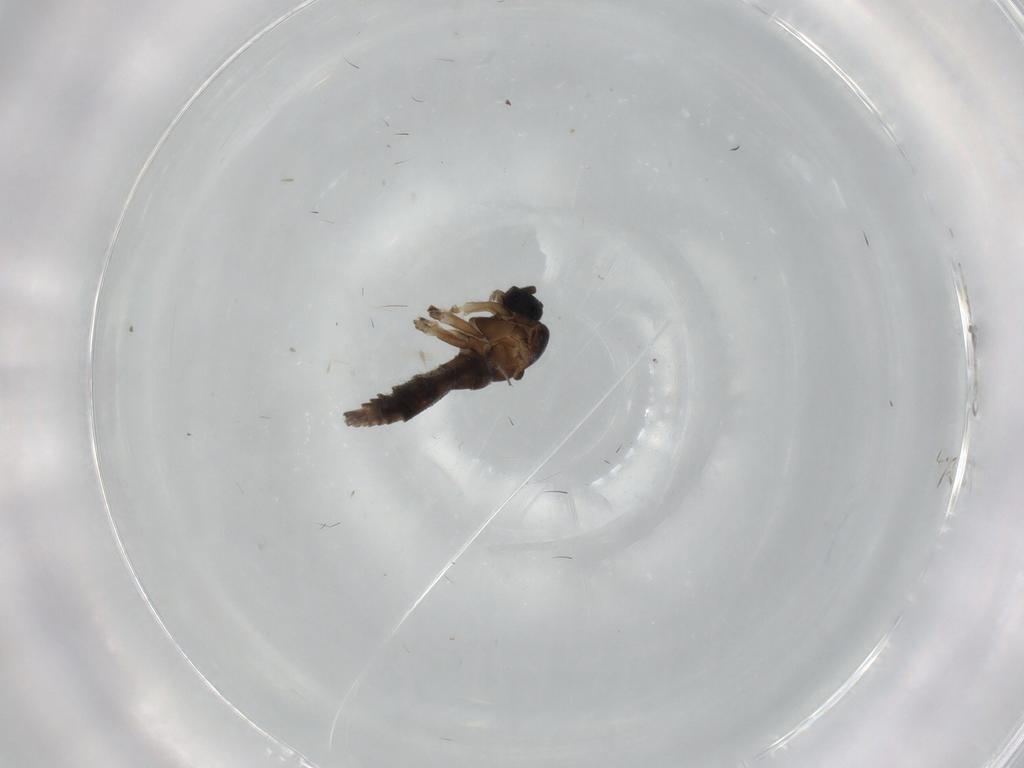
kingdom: Animalia
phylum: Arthropoda
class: Insecta
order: Diptera
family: Sciaridae
